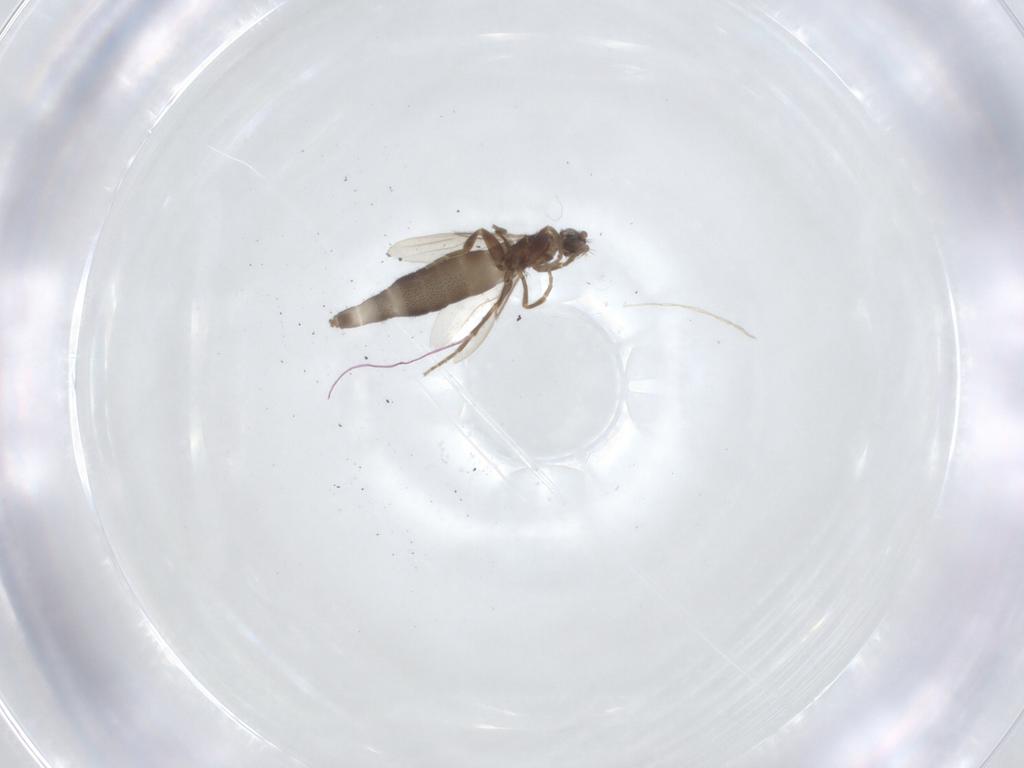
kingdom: Animalia
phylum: Arthropoda
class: Insecta
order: Diptera
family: Phoridae
